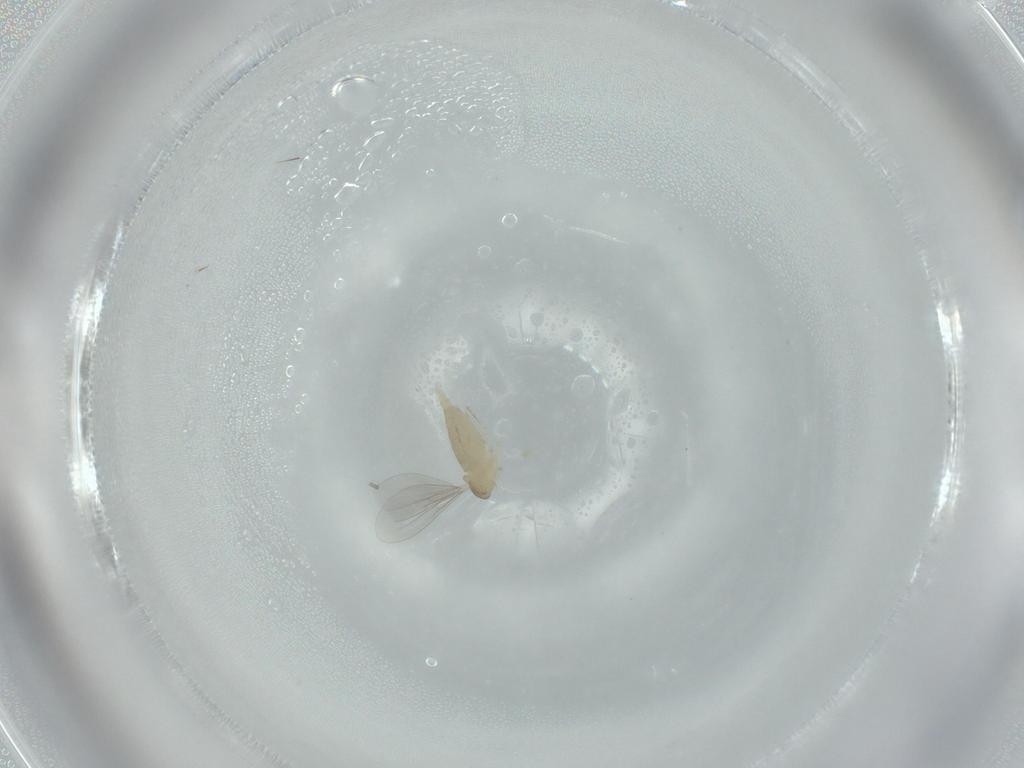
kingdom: Animalia
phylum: Arthropoda
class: Insecta
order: Diptera
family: Cecidomyiidae
